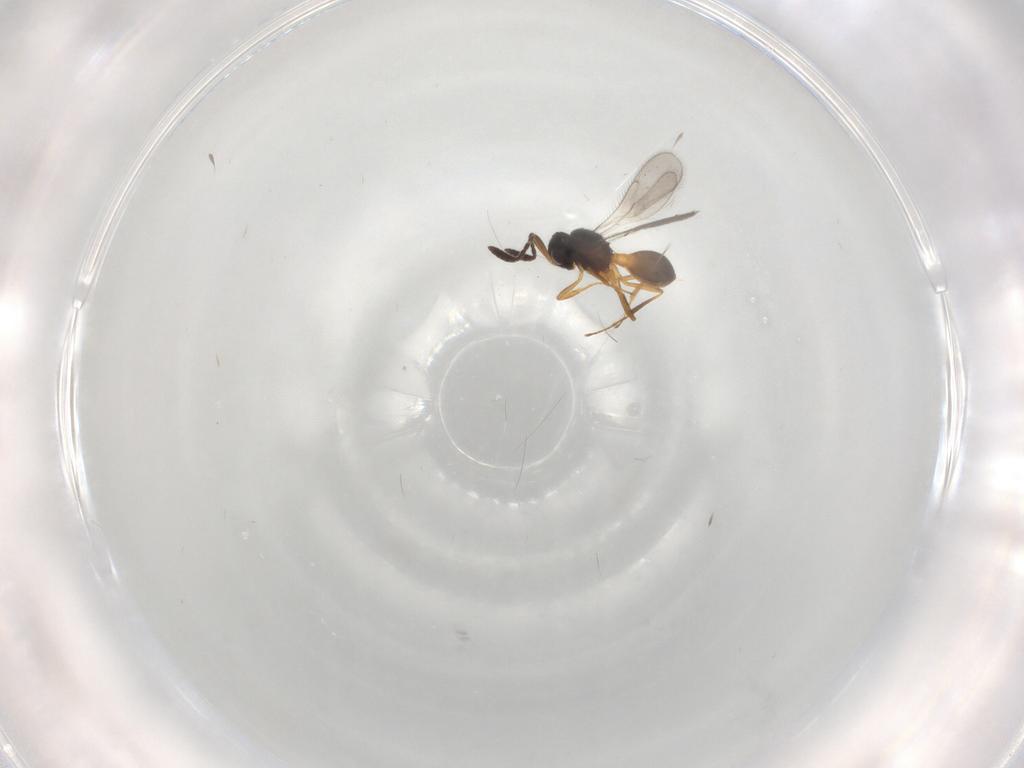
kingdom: Animalia
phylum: Arthropoda
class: Insecta
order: Hymenoptera
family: Scelionidae
